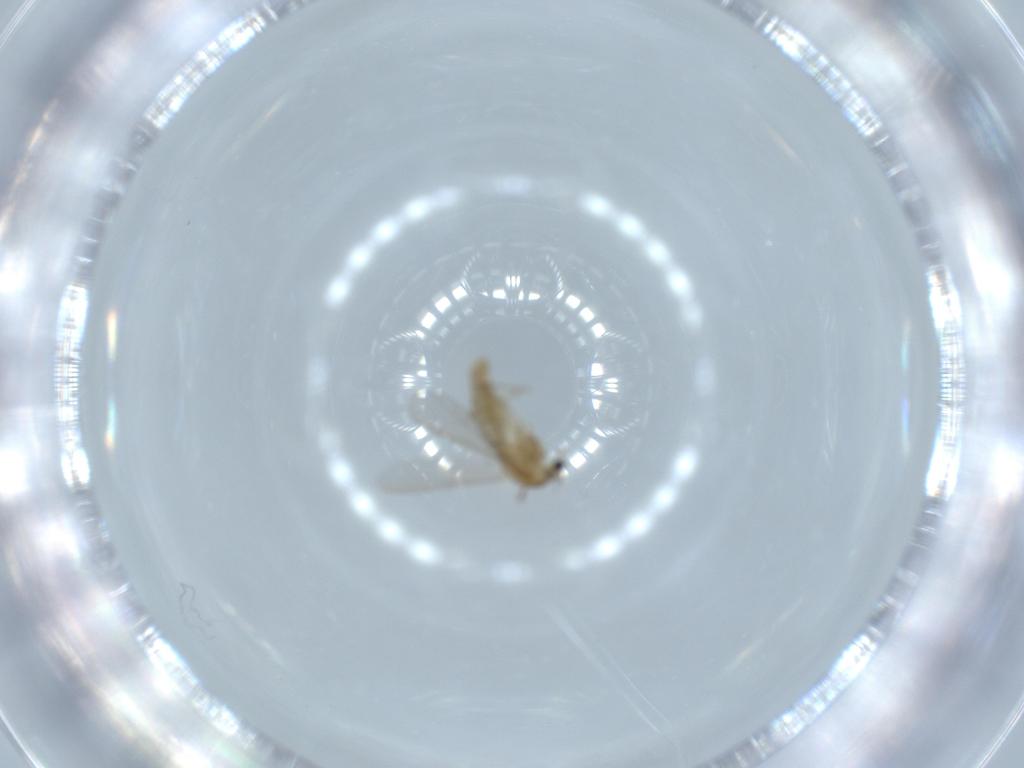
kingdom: Animalia
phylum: Arthropoda
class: Insecta
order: Diptera
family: Chironomidae
